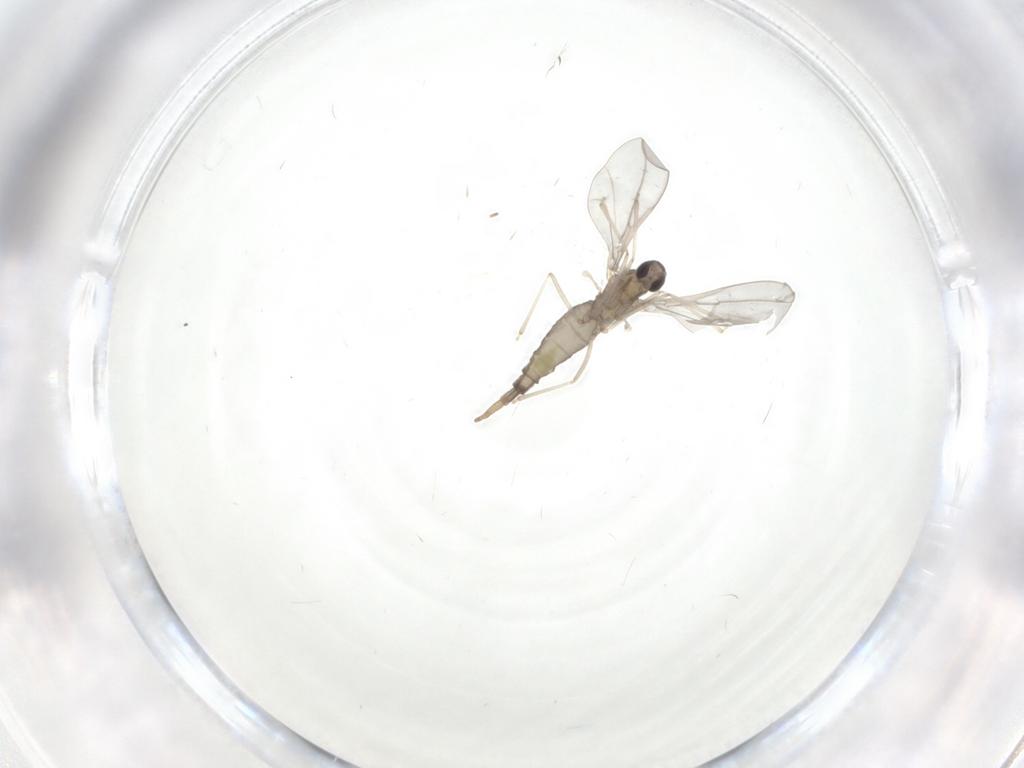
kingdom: Animalia
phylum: Arthropoda
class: Insecta
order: Diptera
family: Cecidomyiidae
